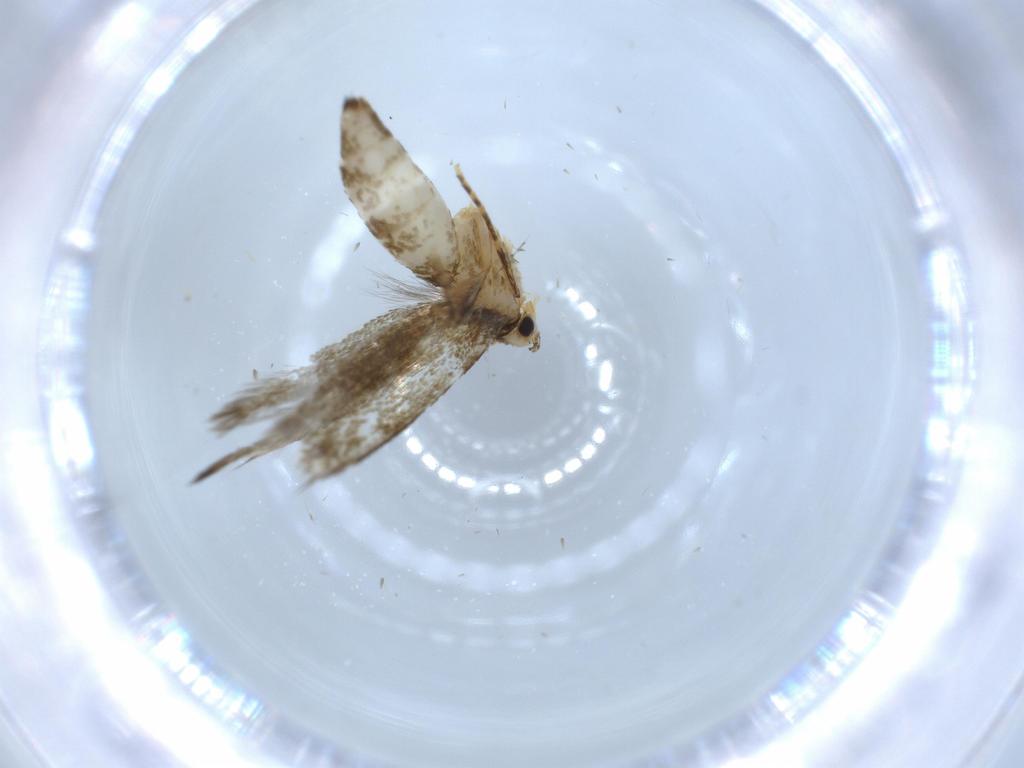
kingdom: Animalia
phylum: Arthropoda
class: Insecta
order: Lepidoptera
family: Tineidae
